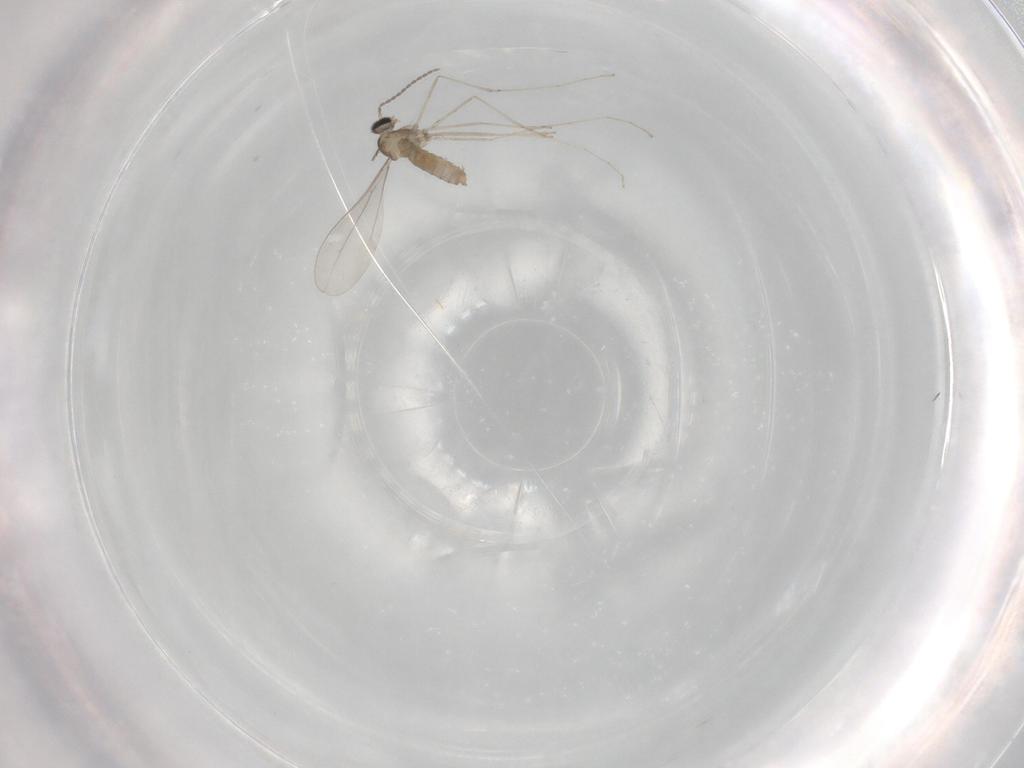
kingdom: Animalia
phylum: Arthropoda
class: Insecta
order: Diptera
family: Cecidomyiidae
